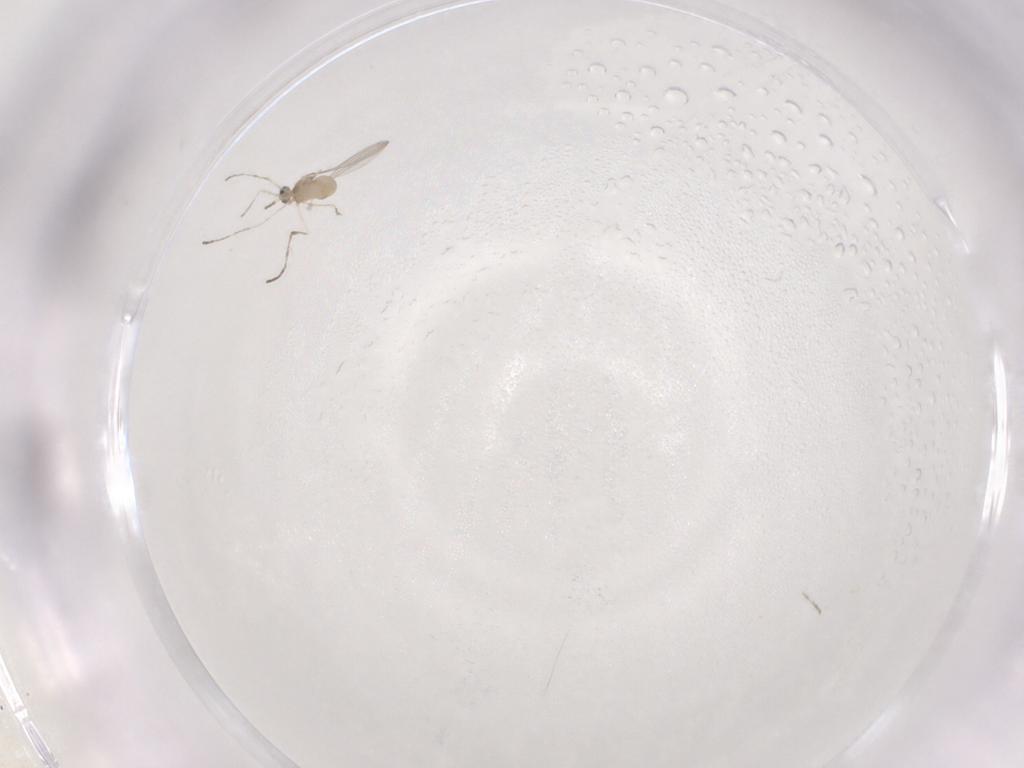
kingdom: Animalia
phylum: Arthropoda
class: Insecta
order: Diptera
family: Cecidomyiidae
